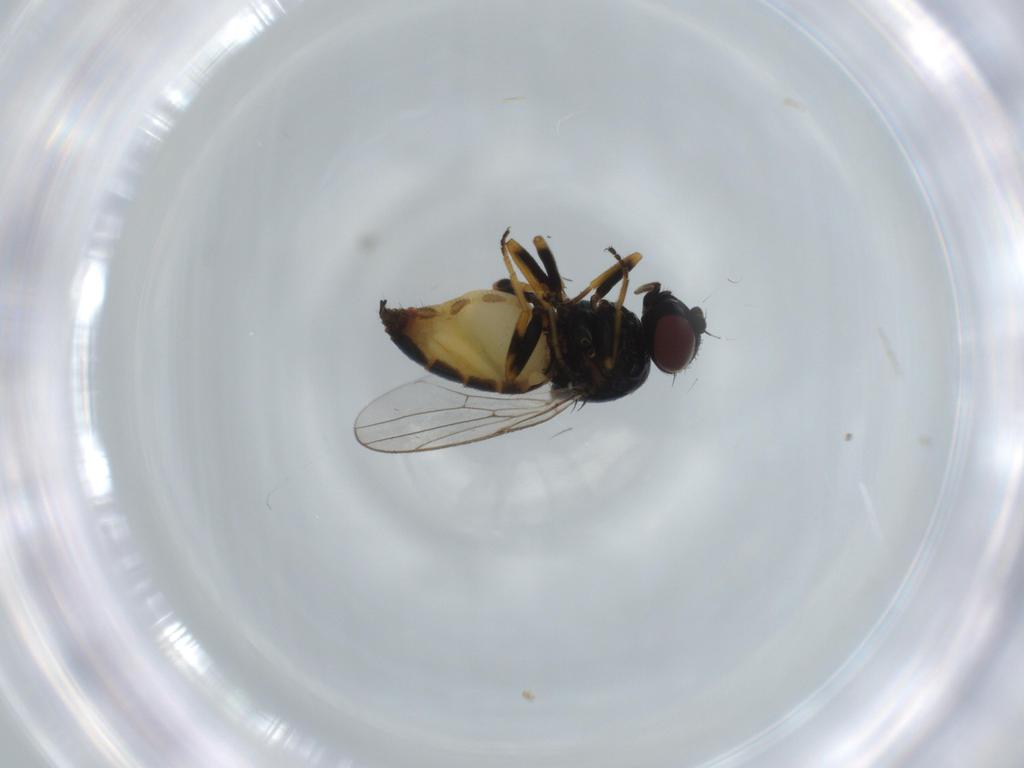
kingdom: Animalia
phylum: Arthropoda
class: Insecta
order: Diptera
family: Chloropidae
